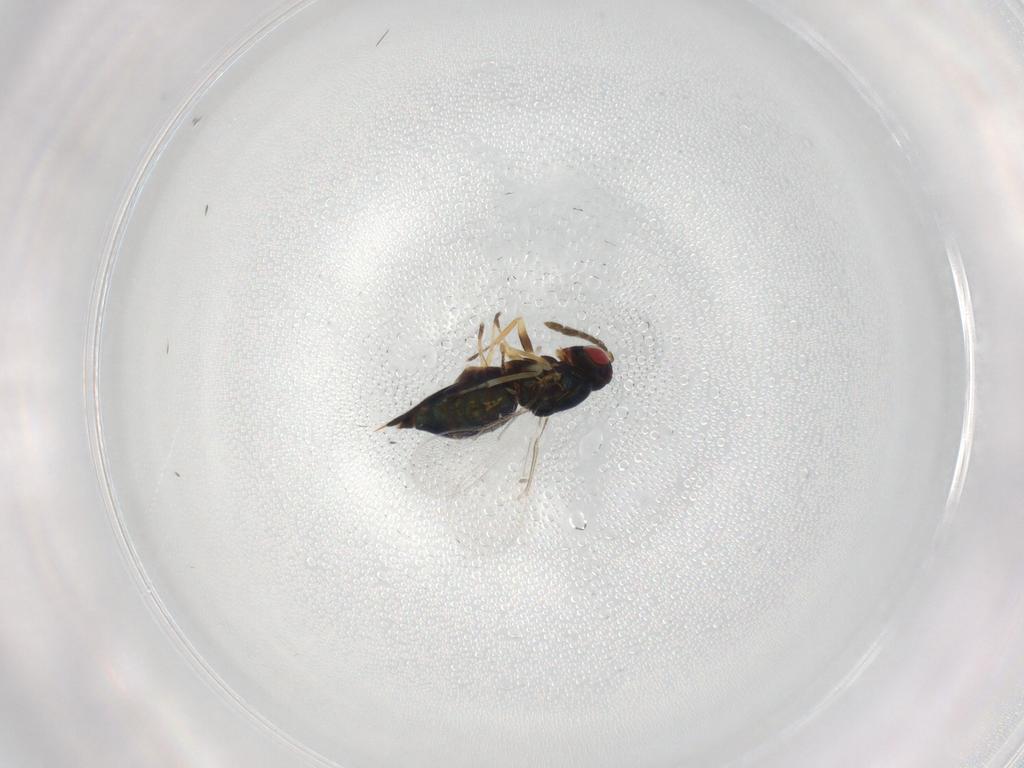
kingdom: Animalia
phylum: Arthropoda
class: Insecta
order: Hymenoptera
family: Eulophidae
